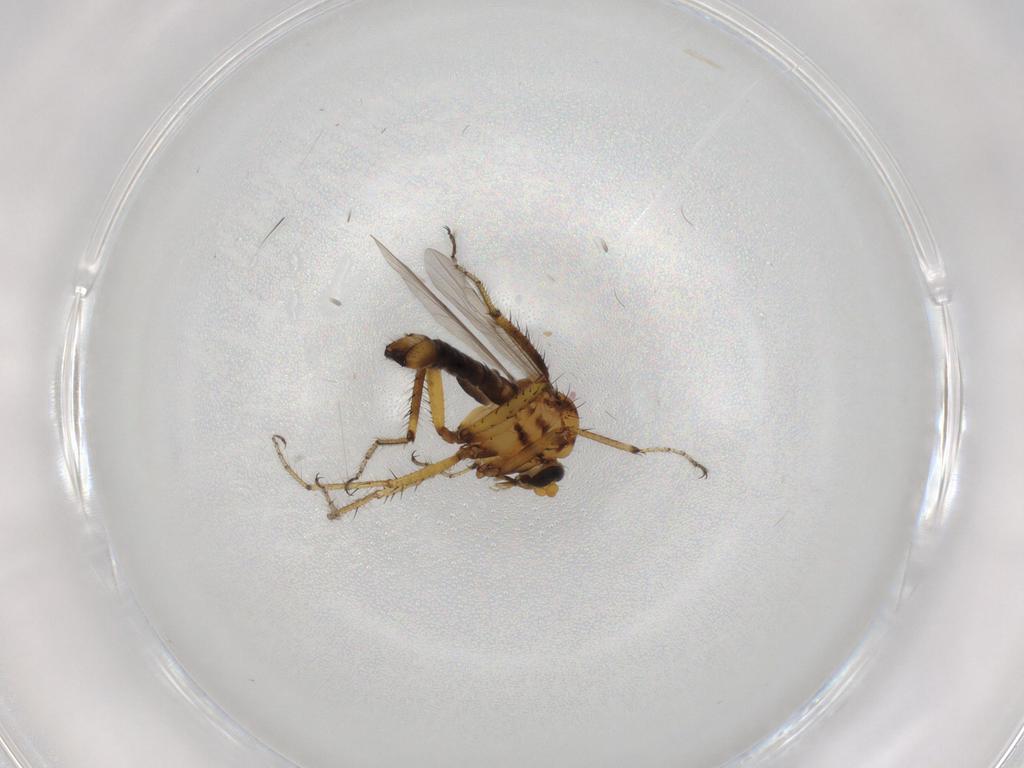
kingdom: Animalia
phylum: Arthropoda
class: Insecta
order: Diptera
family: Ceratopogonidae
